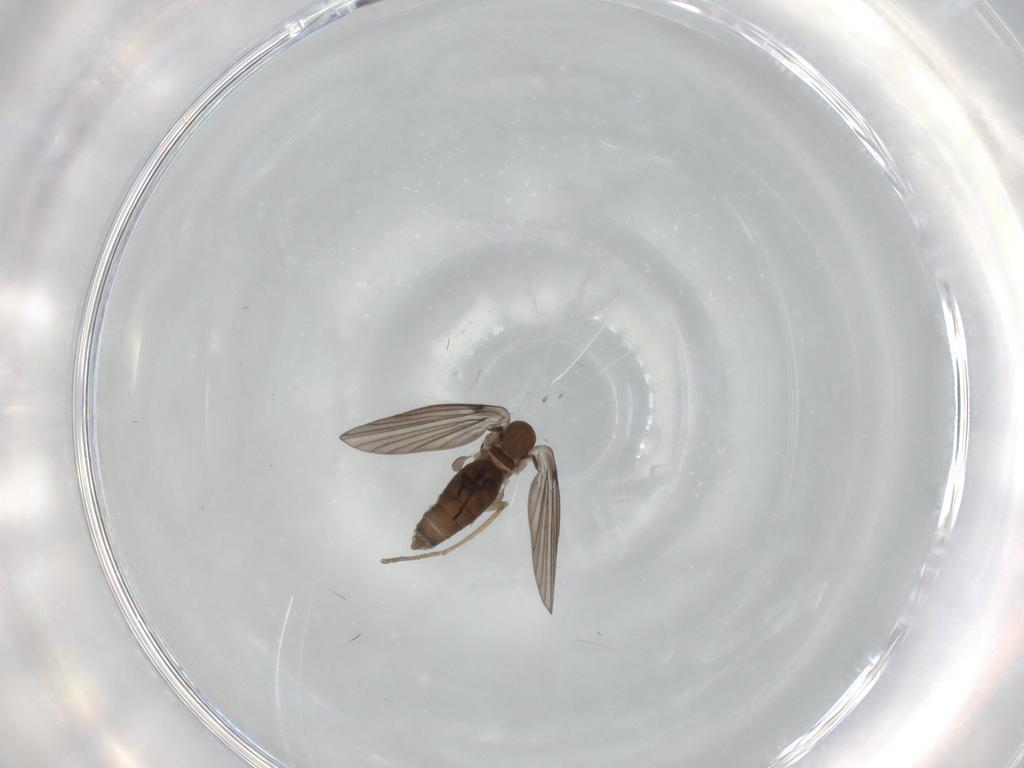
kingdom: Animalia
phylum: Arthropoda
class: Insecta
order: Diptera
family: Psychodidae
